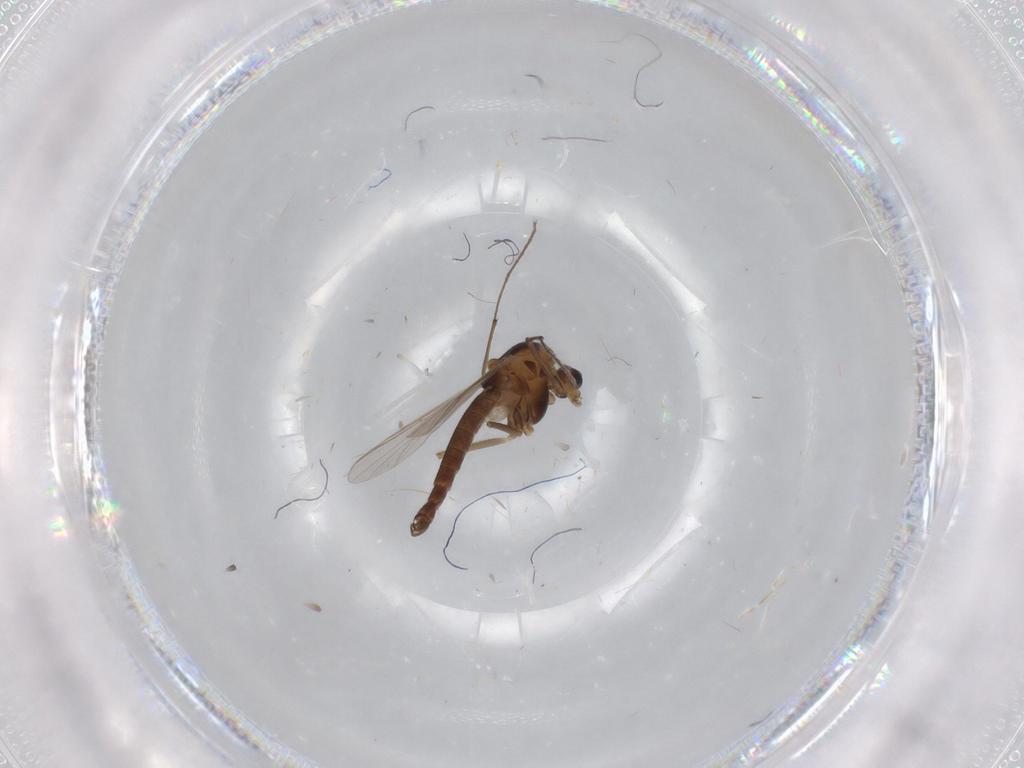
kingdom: Animalia
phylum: Arthropoda
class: Insecta
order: Diptera
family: Chironomidae
